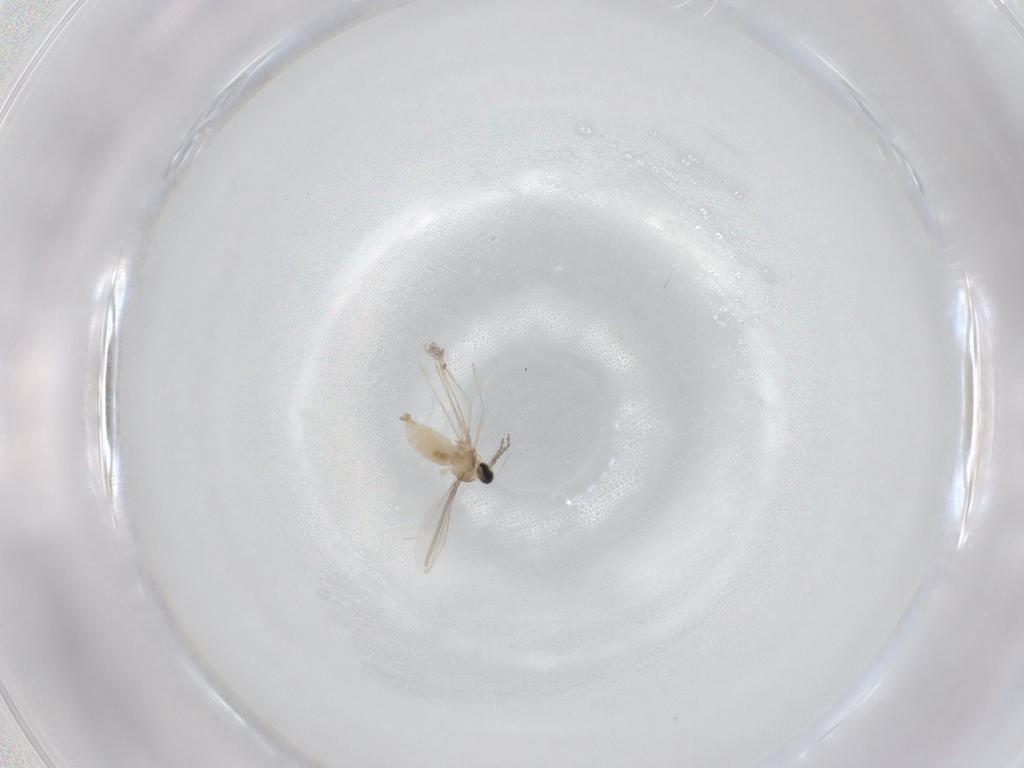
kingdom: Animalia
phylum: Arthropoda
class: Insecta
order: Diptera
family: Cecidomyiidae
